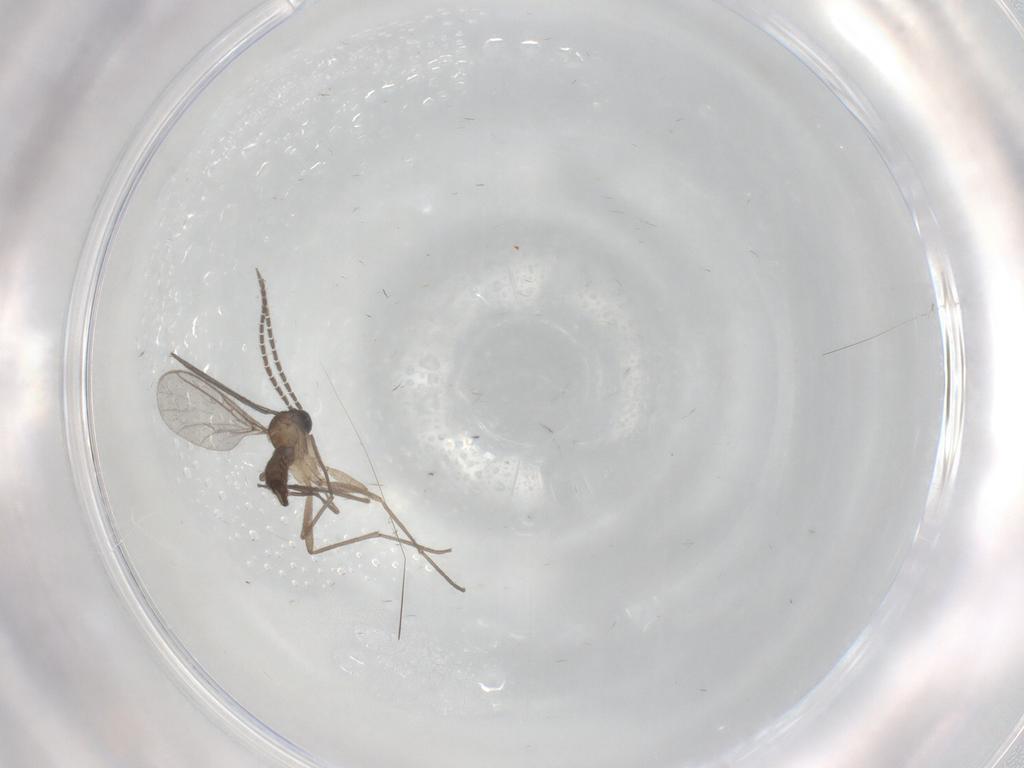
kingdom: Animalia
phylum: Arthropoda
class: Insecta
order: Diptera
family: Sciaridae
